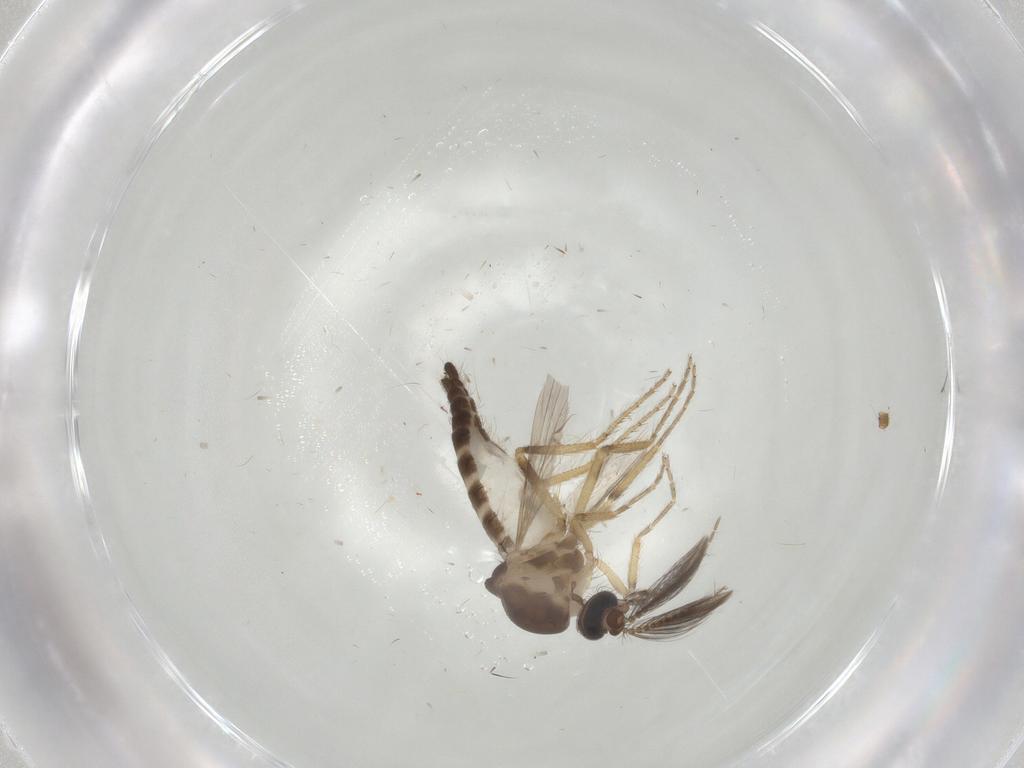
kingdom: Animalia
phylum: Arthropoda
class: Insecta
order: Diptera
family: Ceratopogonidae
